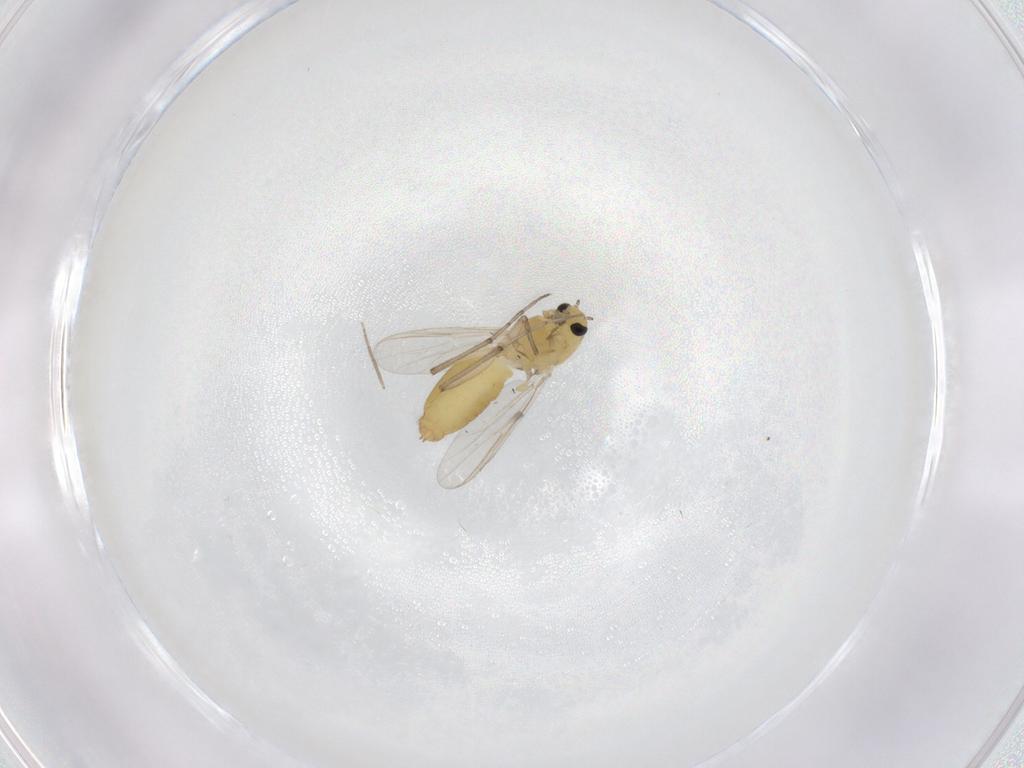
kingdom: Animalia
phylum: Arthropoda
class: Insecta
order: Diptera
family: Chironomidae
